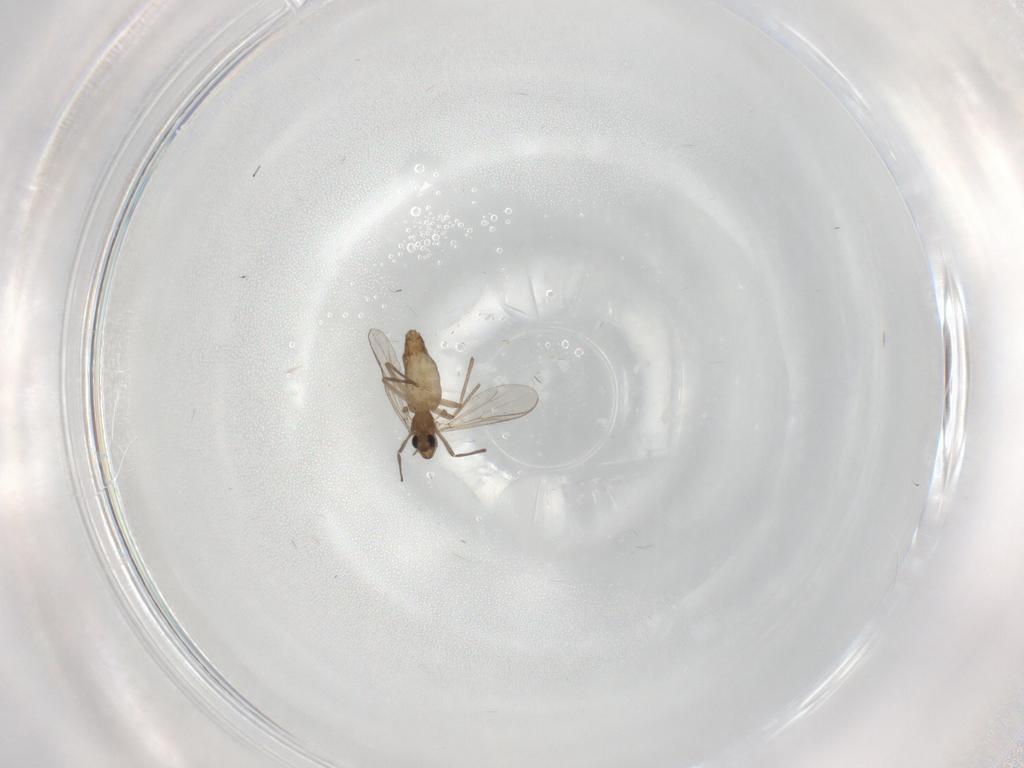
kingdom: Animalia
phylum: Arthropoda
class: Insecta
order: Diptera
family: Chironomidae
